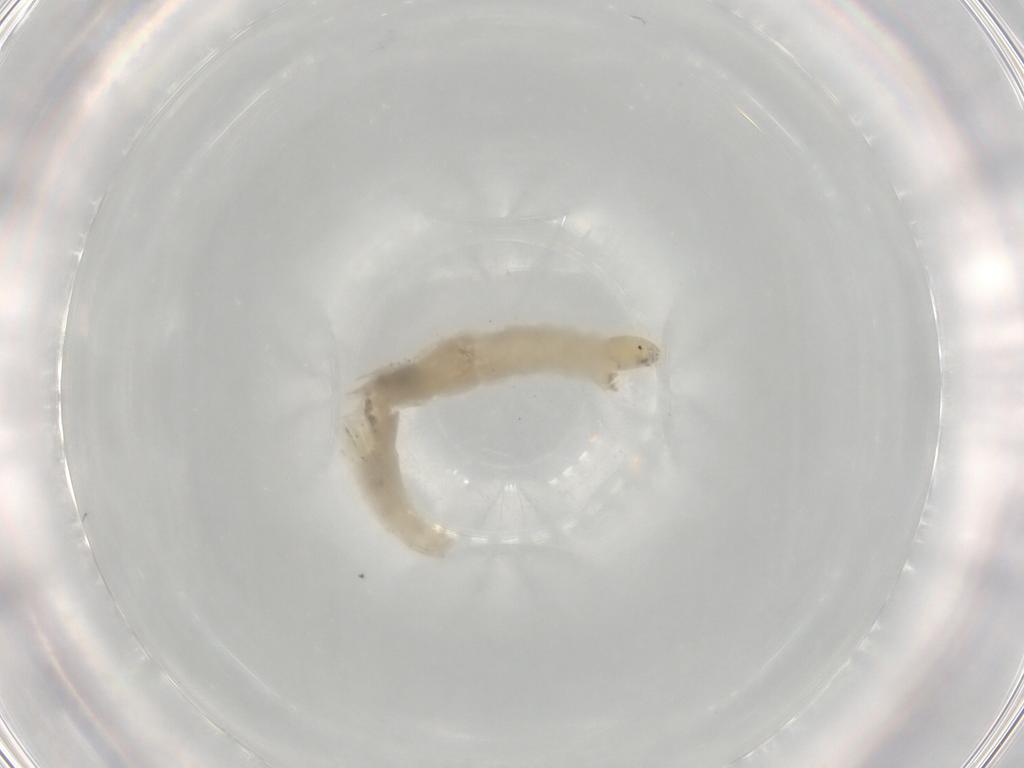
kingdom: Animalia
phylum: Arthropoda
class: Insecta
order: Diptera
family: Chironomidae
